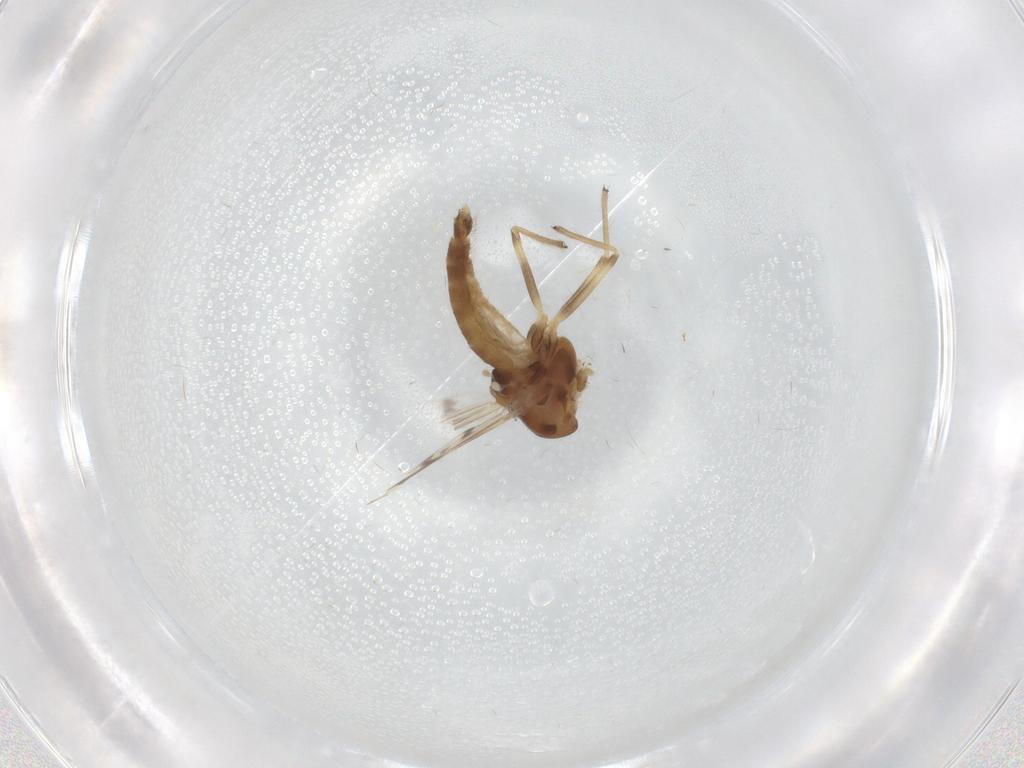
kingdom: Animalia
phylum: Arthropoda
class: Insecta
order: Diptera
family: Chironomidae
